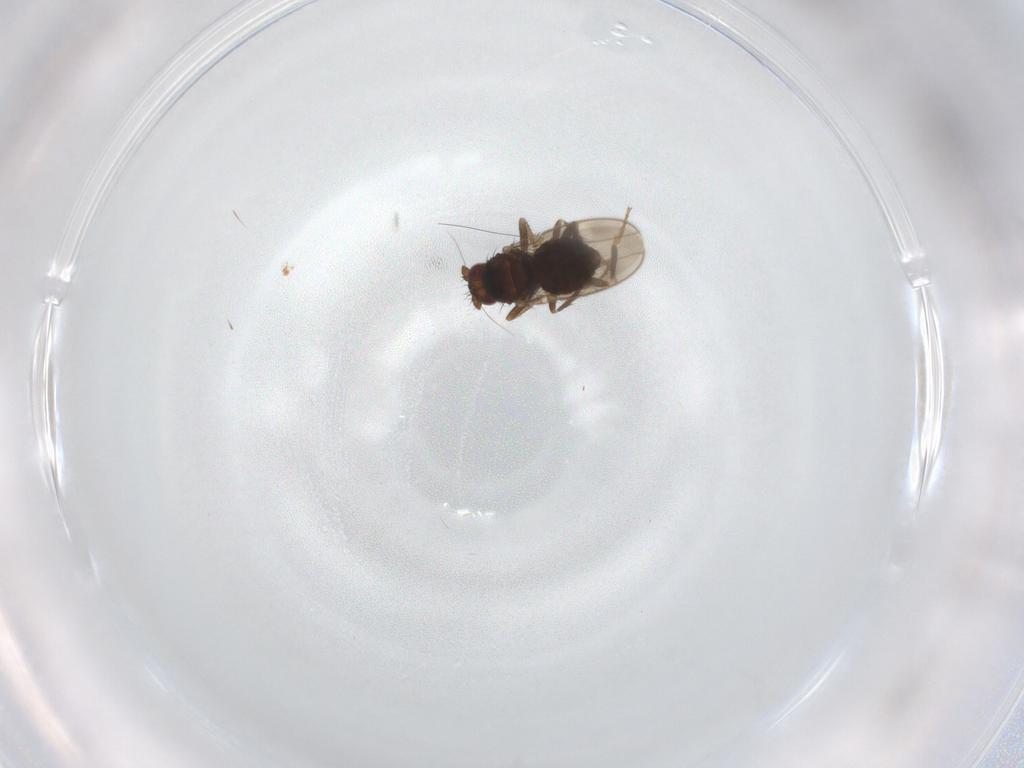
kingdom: Animalia
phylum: Arthropoda
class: Insecta
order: Diptera
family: Sphaeroceridae
